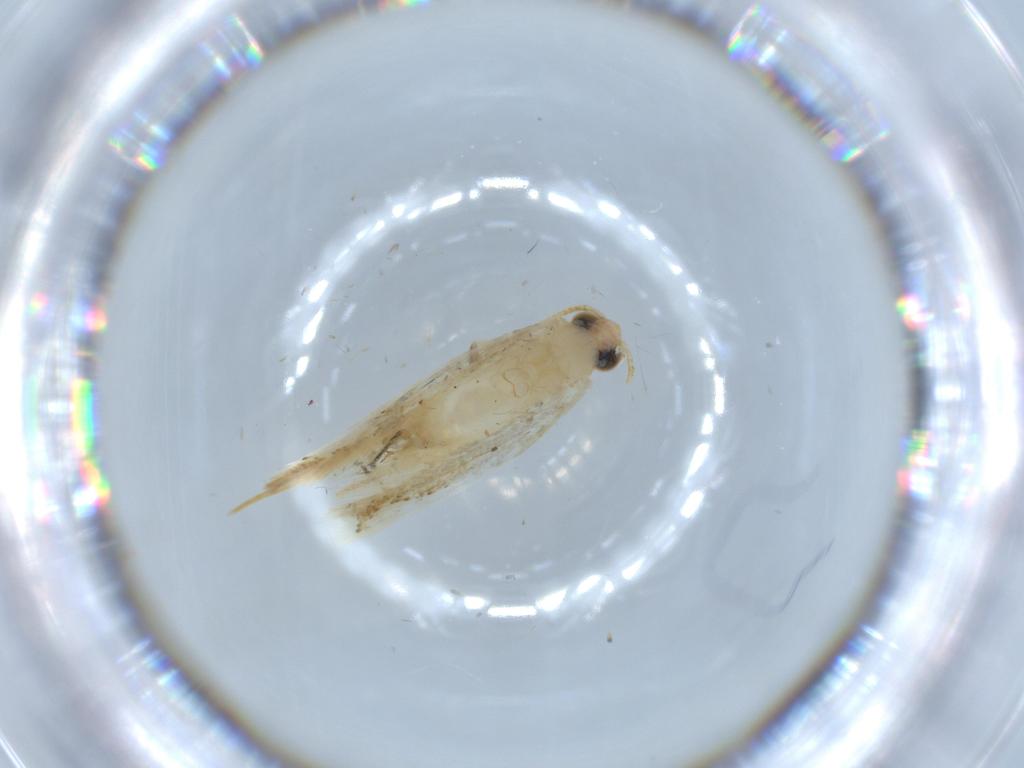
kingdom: Animalia
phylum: Arthropoda
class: Insecta
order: Lepidoptera
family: Tineidae
